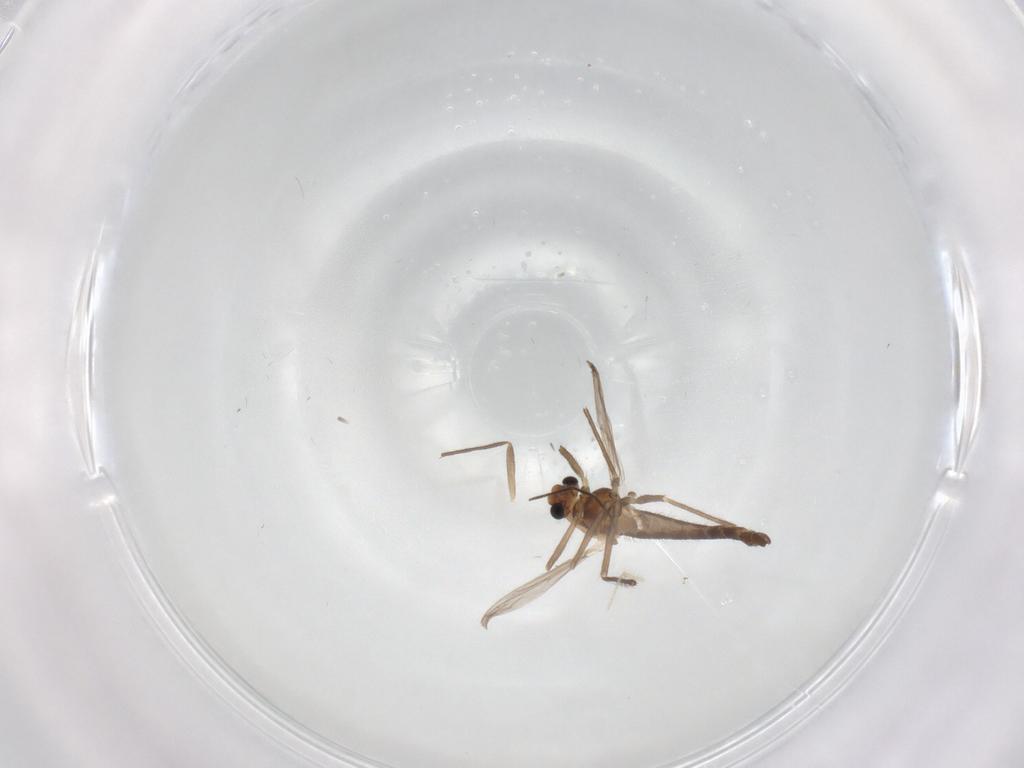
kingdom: Animalia
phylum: Arthropoda
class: Insecta
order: Diptera
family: Chironomidae
